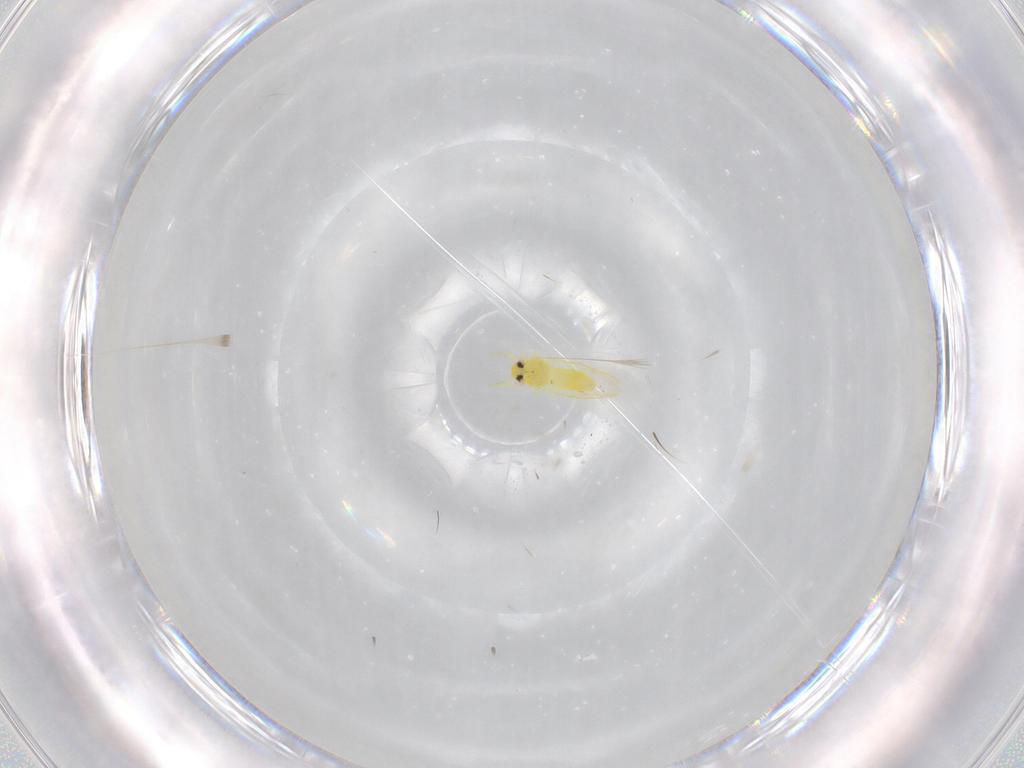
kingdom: Animalia
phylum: Arthropoda
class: Insecta
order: Hemiptera
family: Aleyrodidae
